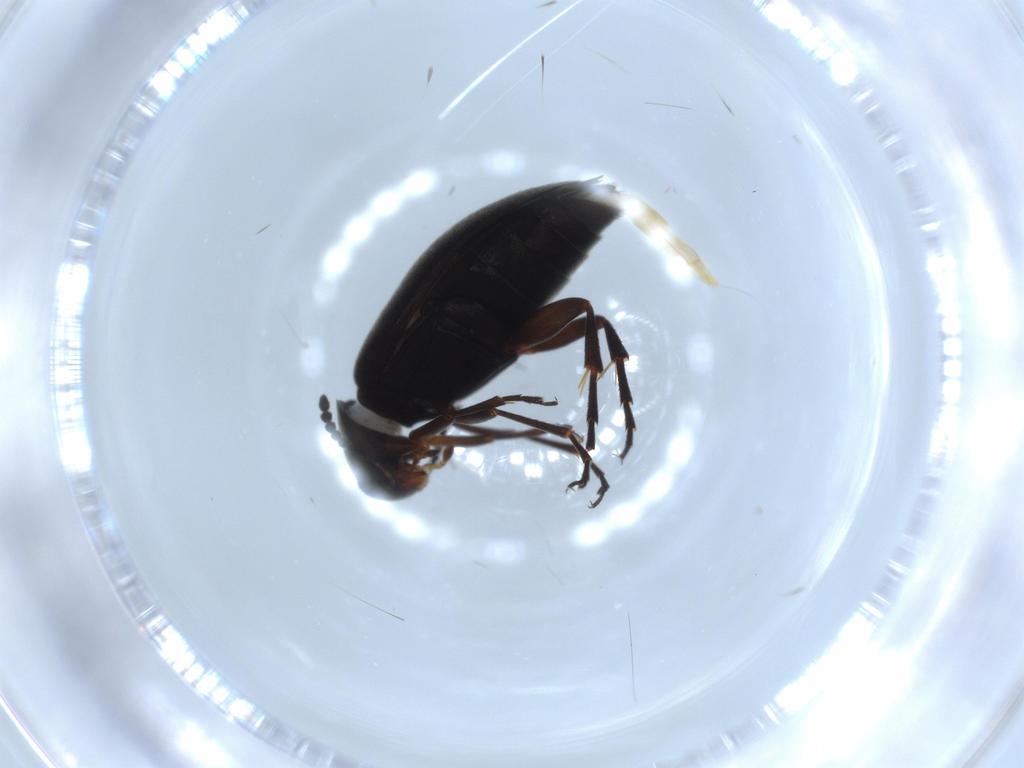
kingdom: Animalia
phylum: Arthropoda
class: Insecta
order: Coleoptera
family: Scraptiidae
